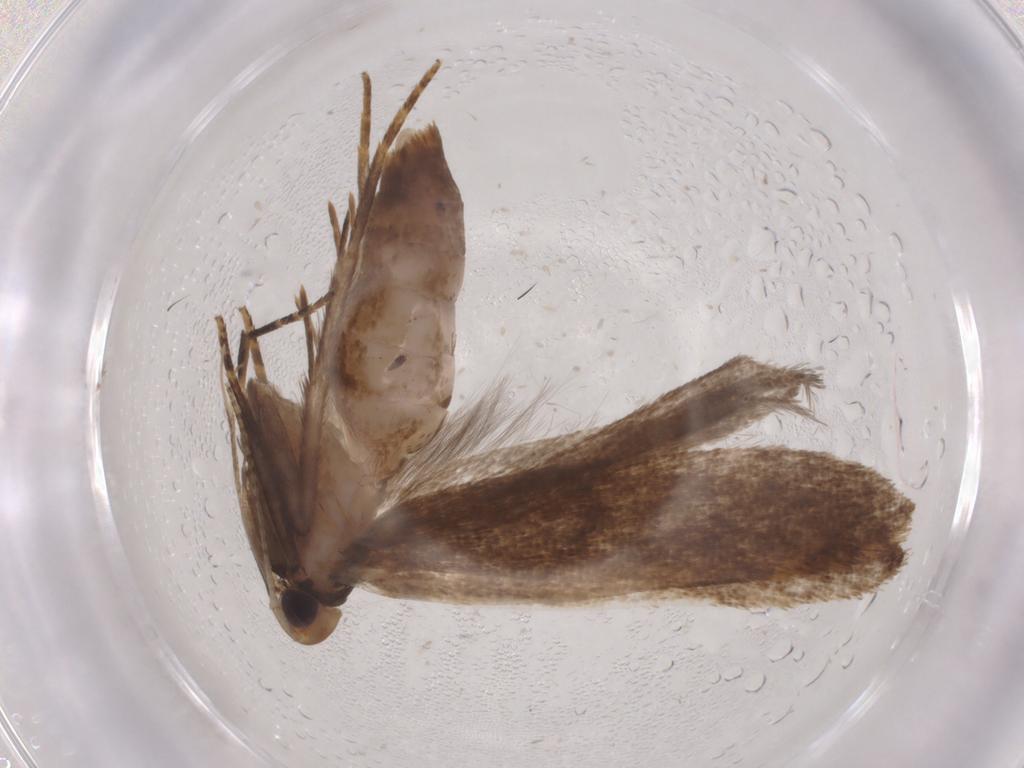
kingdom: Animalia
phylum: Arthropoda
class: Insecta
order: Lepidoptera
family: Gelechiidae
